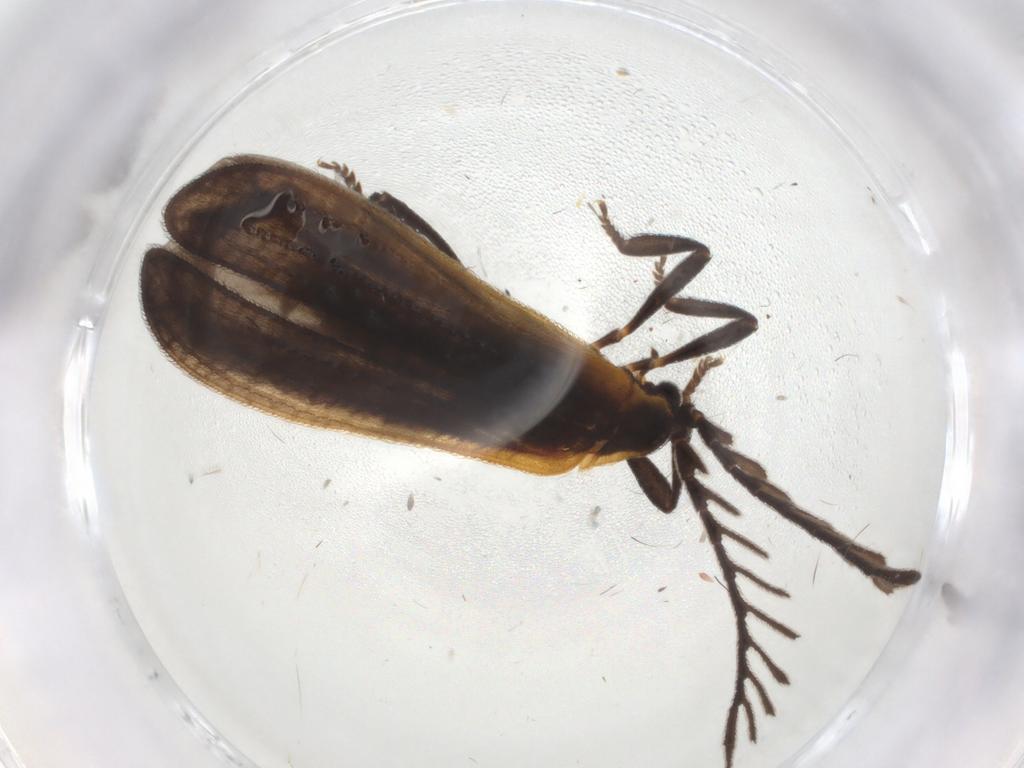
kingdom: Animalia
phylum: Arthropoda
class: Insecta
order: Coleoptera
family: Lycidae
